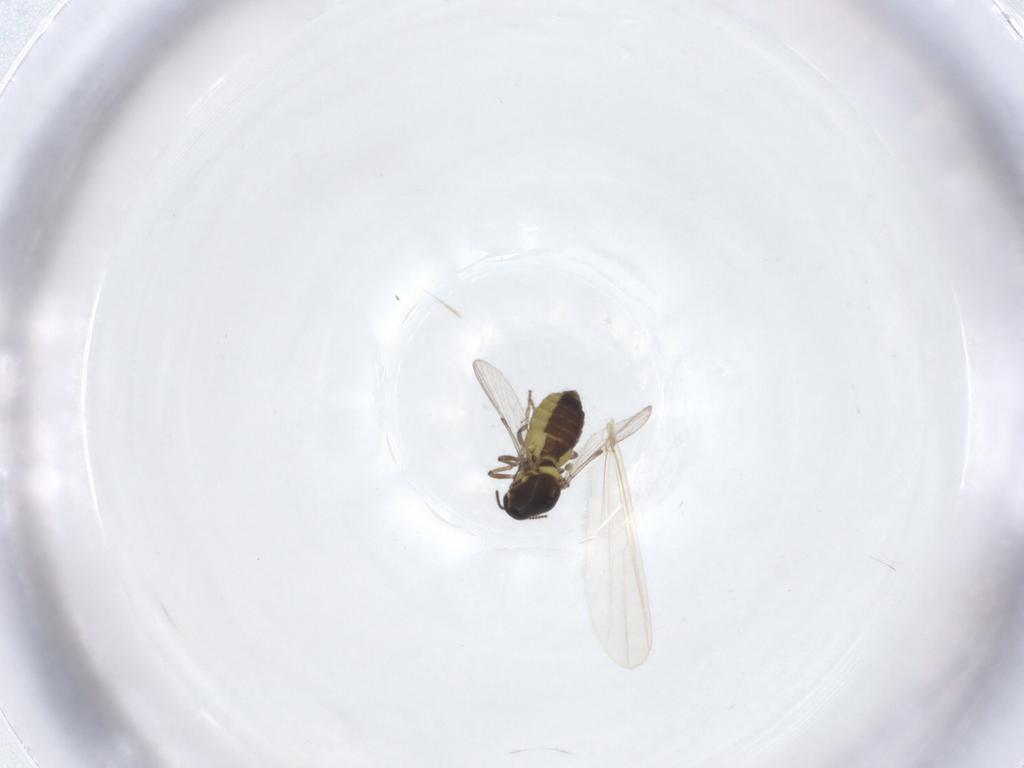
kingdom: Animalia
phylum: Arthropoda
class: Insecta
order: Diptera
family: Ceratopogonidae
